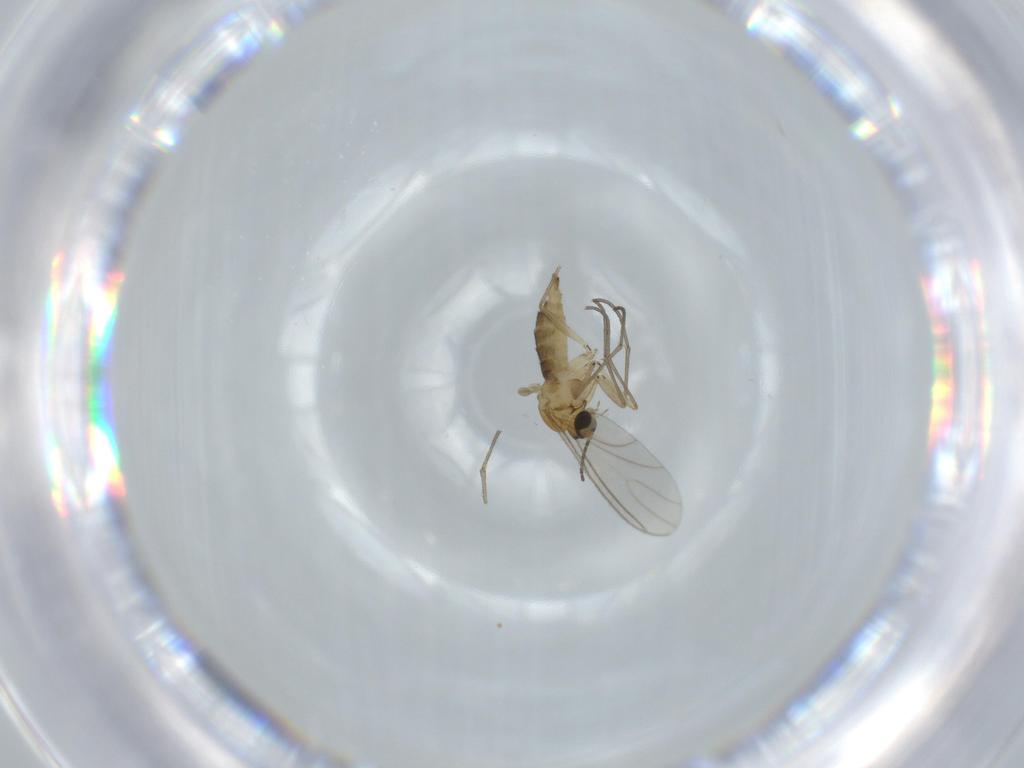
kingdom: Animalia
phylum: Arthropoda
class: Insecta
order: Diptera
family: Sciaridae
